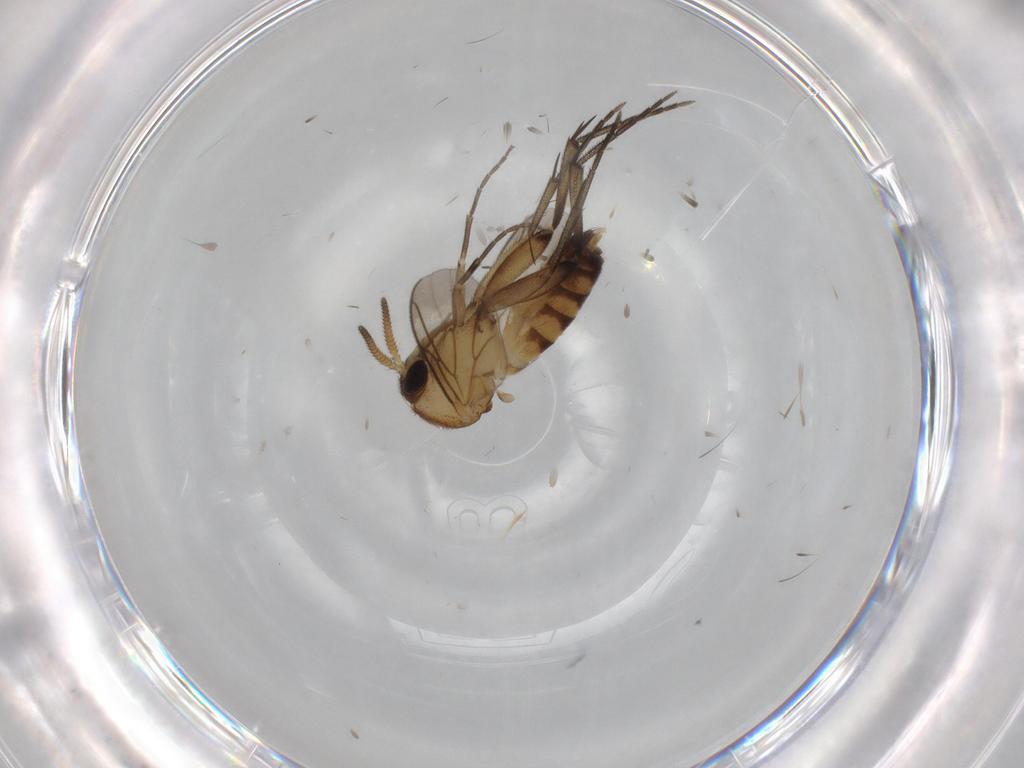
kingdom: Animalia
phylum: Arthropoda
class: Insecta
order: Diptera
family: Mycetophilidae
